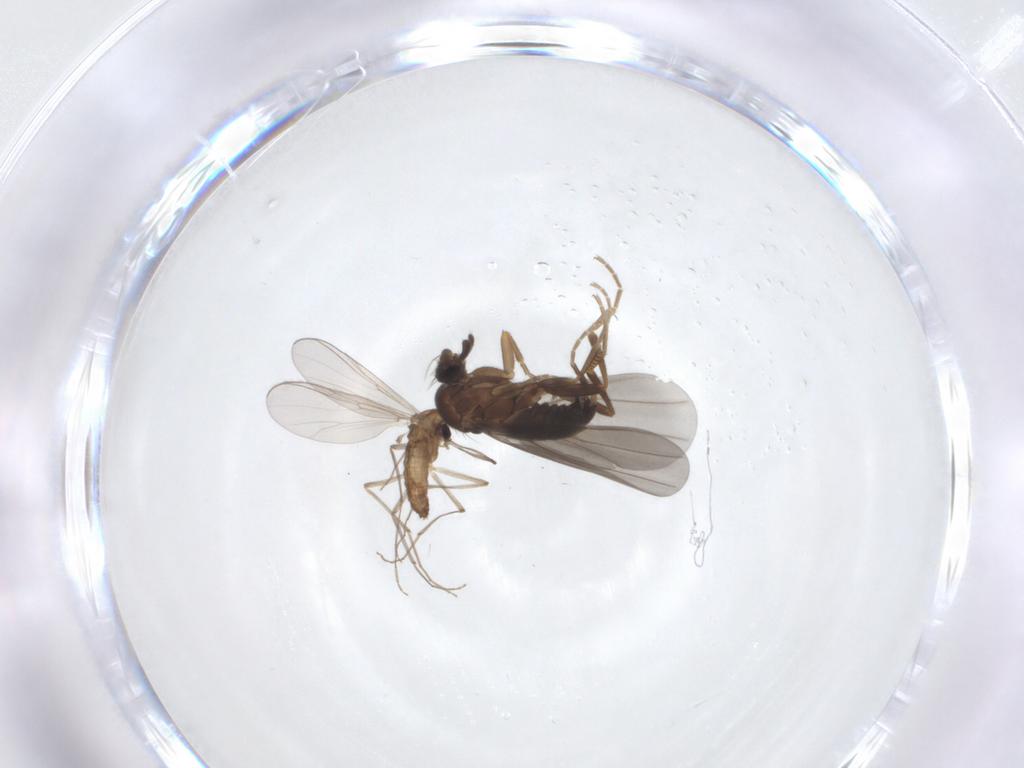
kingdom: Animalia
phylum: Arthropoda
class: Insecta
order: Diptera
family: Chironomidae
